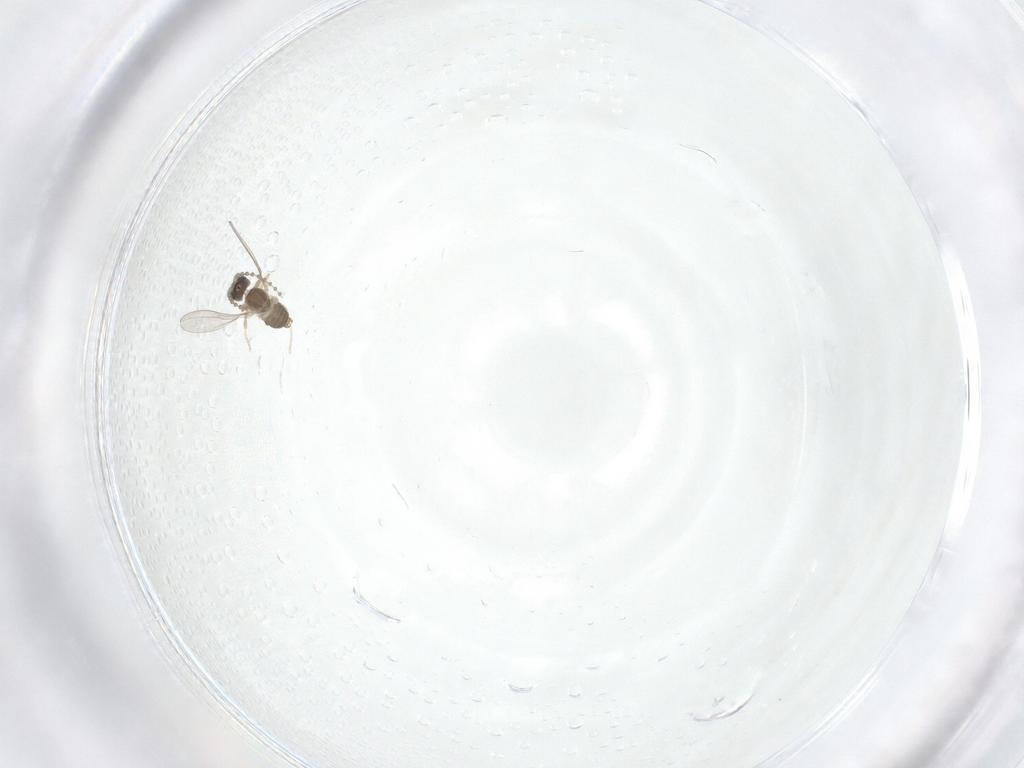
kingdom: Animalia
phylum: Arthropoda
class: Insecta
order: Diptera
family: Cecidomyiidae
